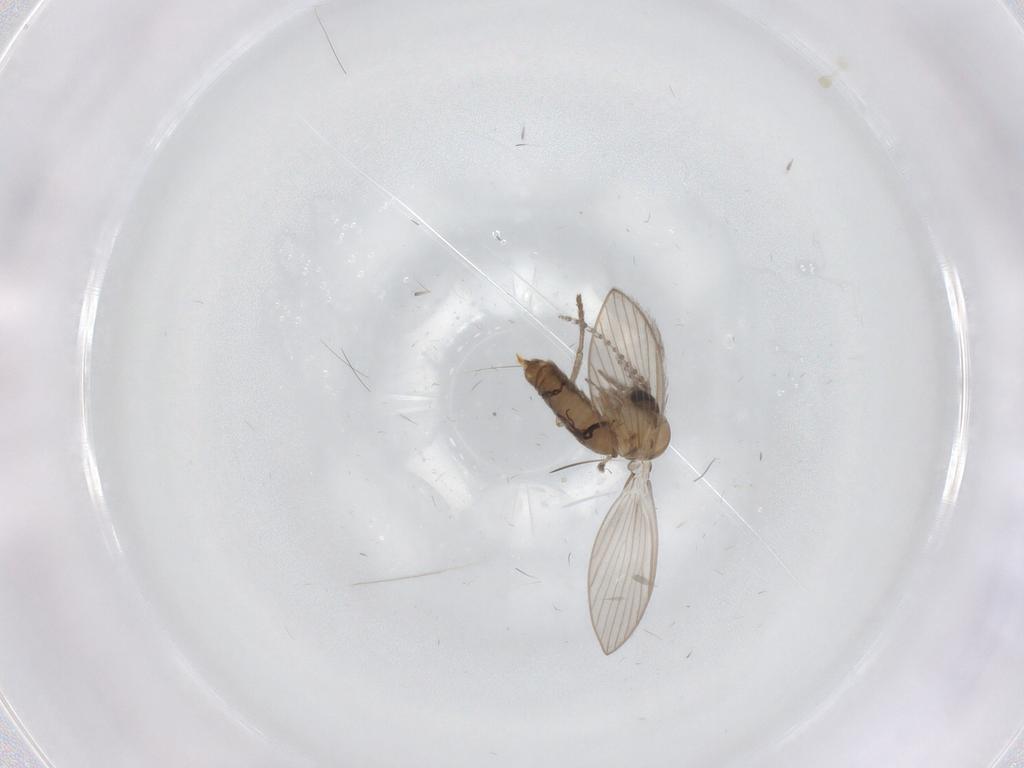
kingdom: Animalia
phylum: Arthropoda
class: Insecta
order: Diptera
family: Psychodidae
